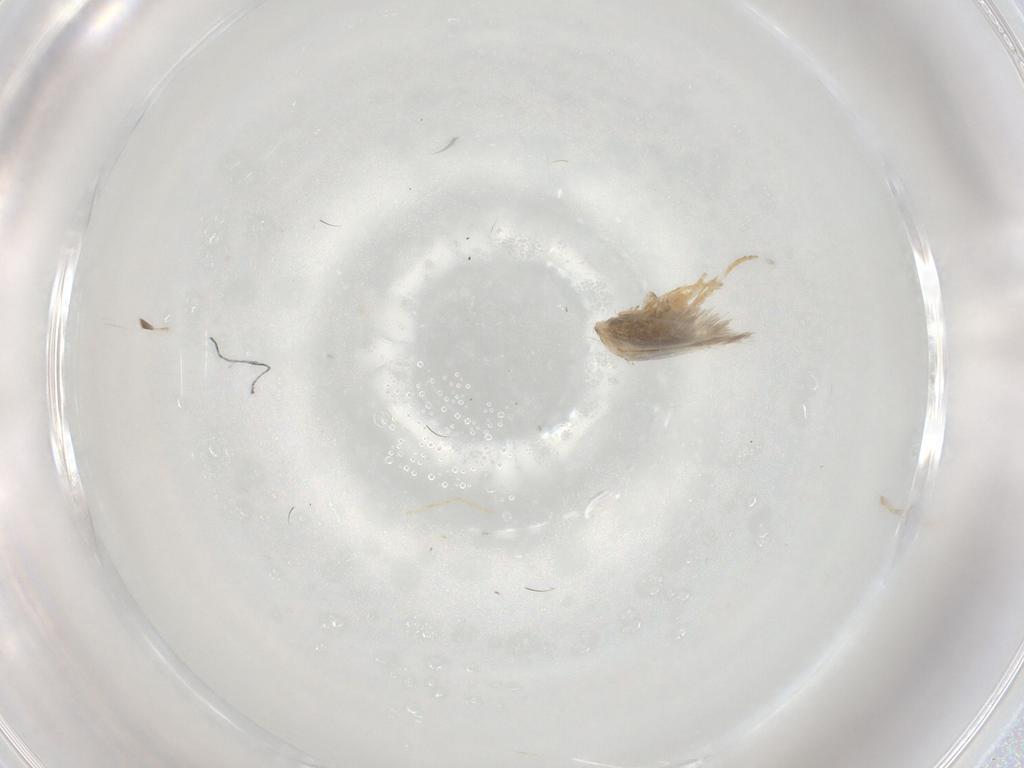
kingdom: Animalia
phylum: Arthropoda
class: Insecta
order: Lepidoptera
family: Nepticulidae
